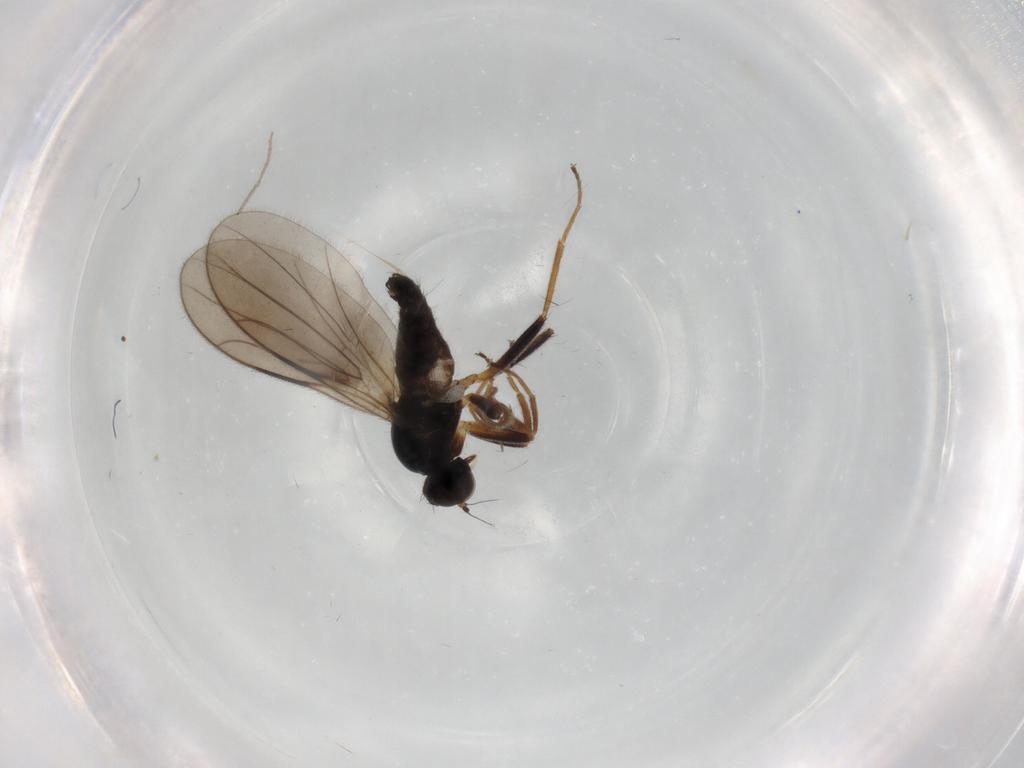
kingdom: Animalia
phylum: Arthropoda
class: Insecta
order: Diptera
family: Hybotidae
